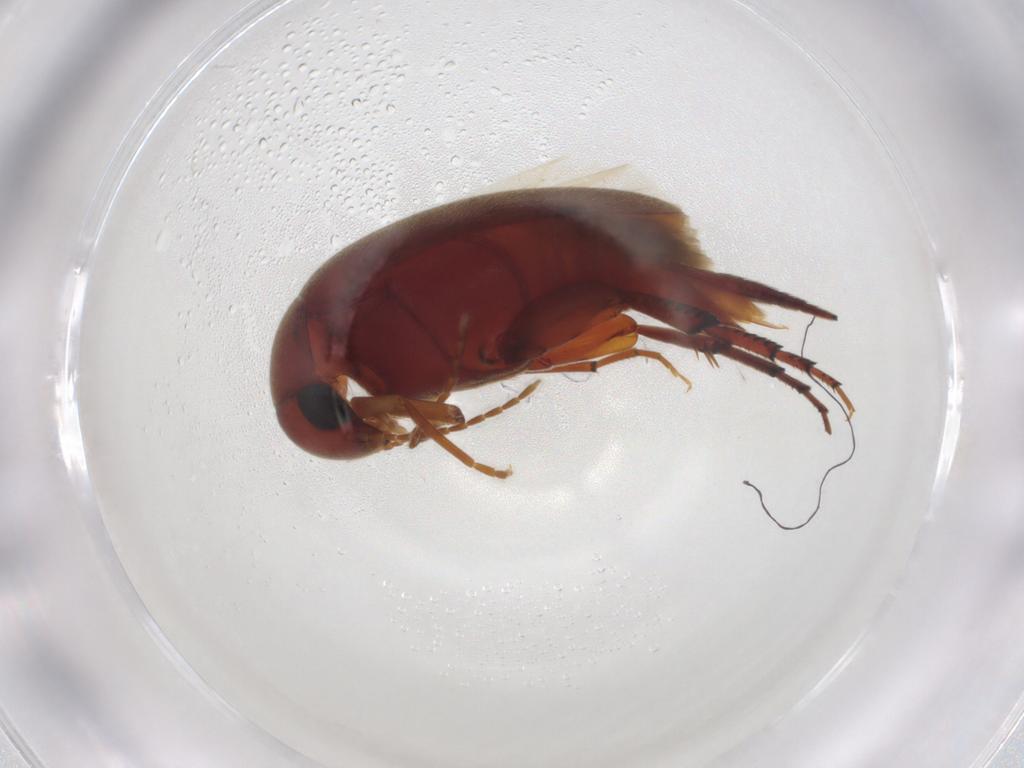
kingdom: Animalia
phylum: Arthropoda
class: Insecta
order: Coleoptera
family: Mordellidae
